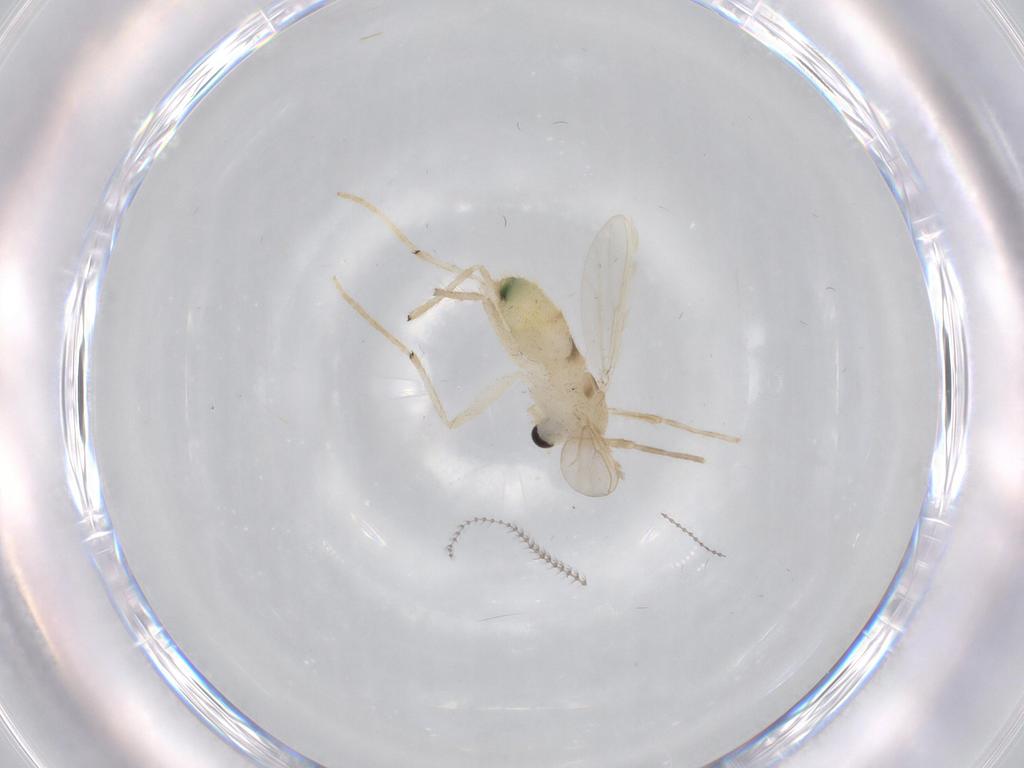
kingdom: Animalia
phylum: Arthropoda
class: Insecta
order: Diptera
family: Chironomidae
